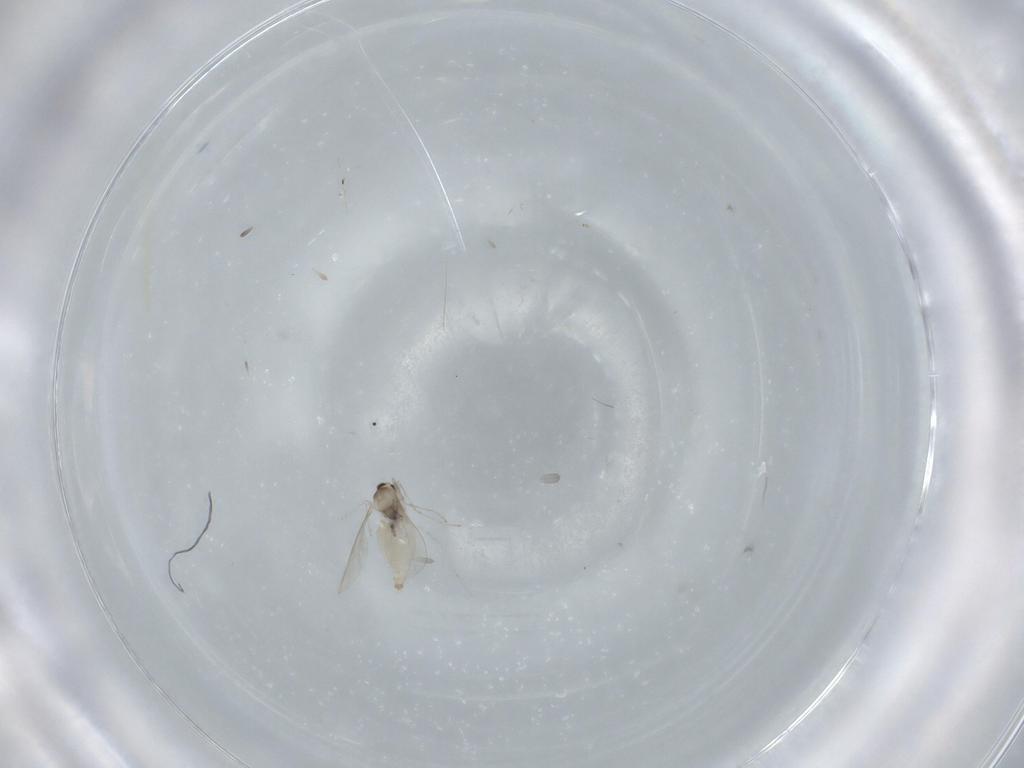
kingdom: Animalia
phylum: Arthropoda
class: Insecta
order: Diptera
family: Cecidomyiidae
